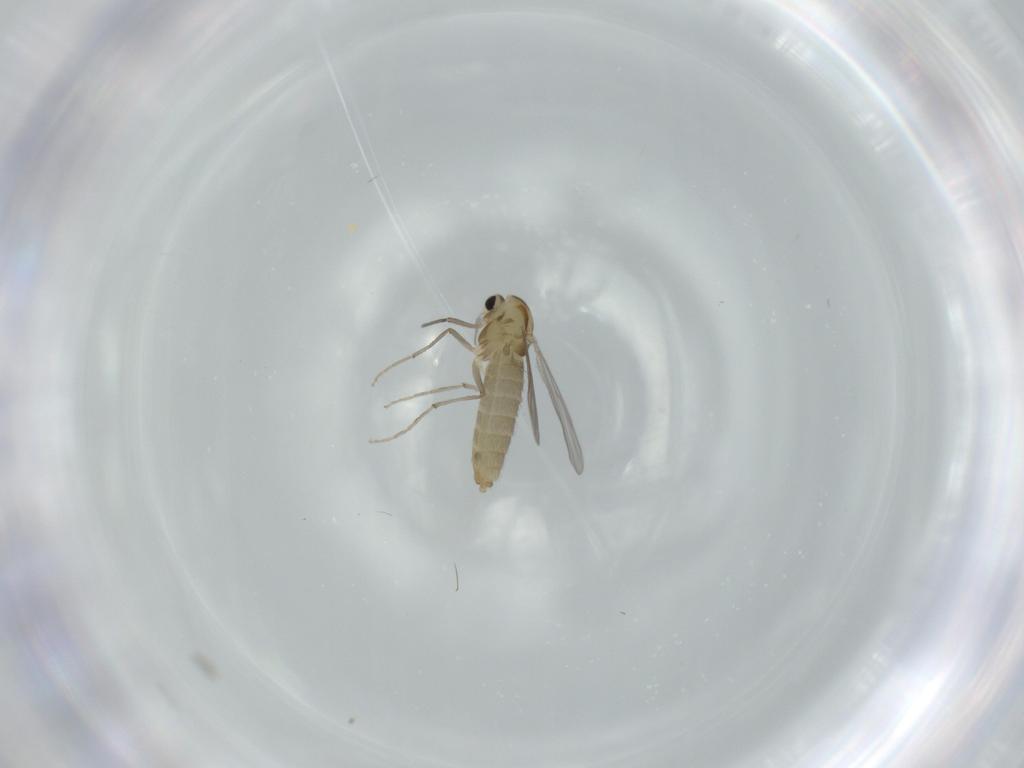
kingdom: Animalia
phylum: Arthropoda
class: Insecta
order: Diptera
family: Chironomidae
